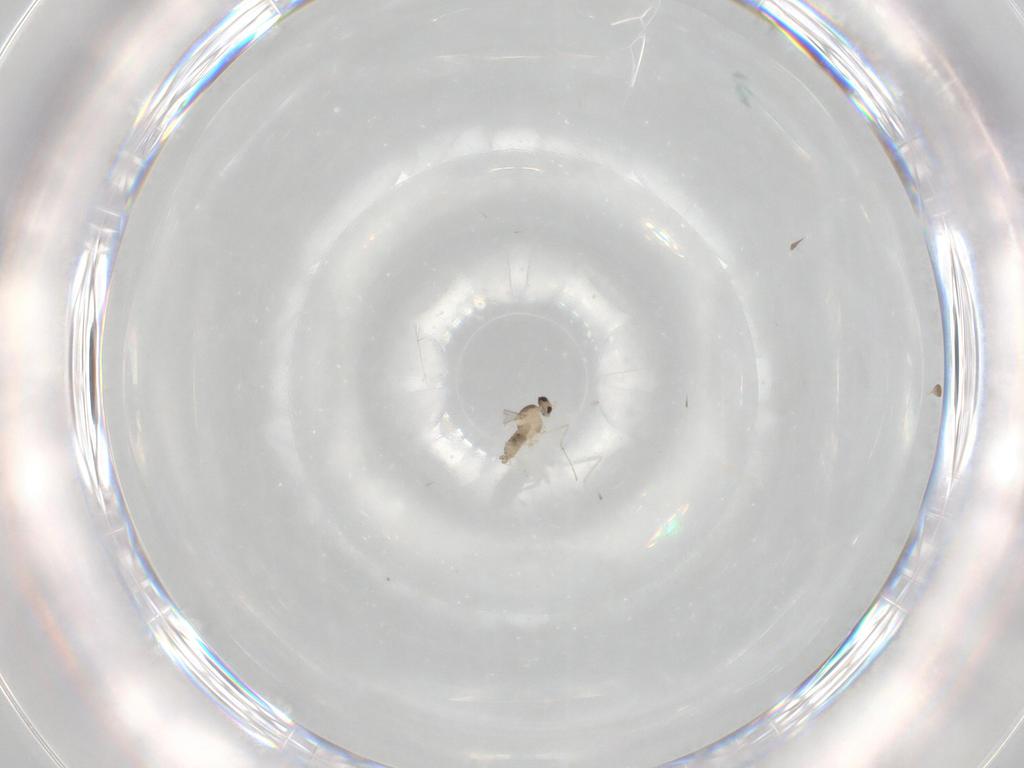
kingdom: Animalia
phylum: Arthropoda
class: Insecta
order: Diptera
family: Cecidomyiidae
